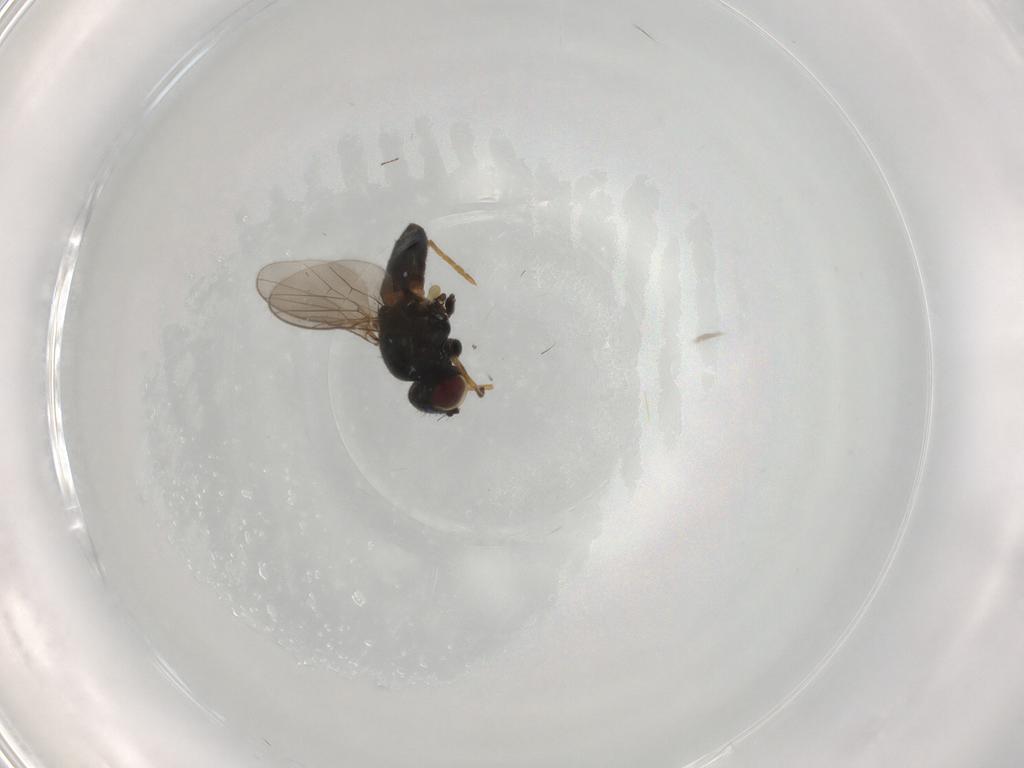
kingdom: Animalia
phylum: Arthropoda
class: Insecta
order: Diptera
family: Chloropidae
